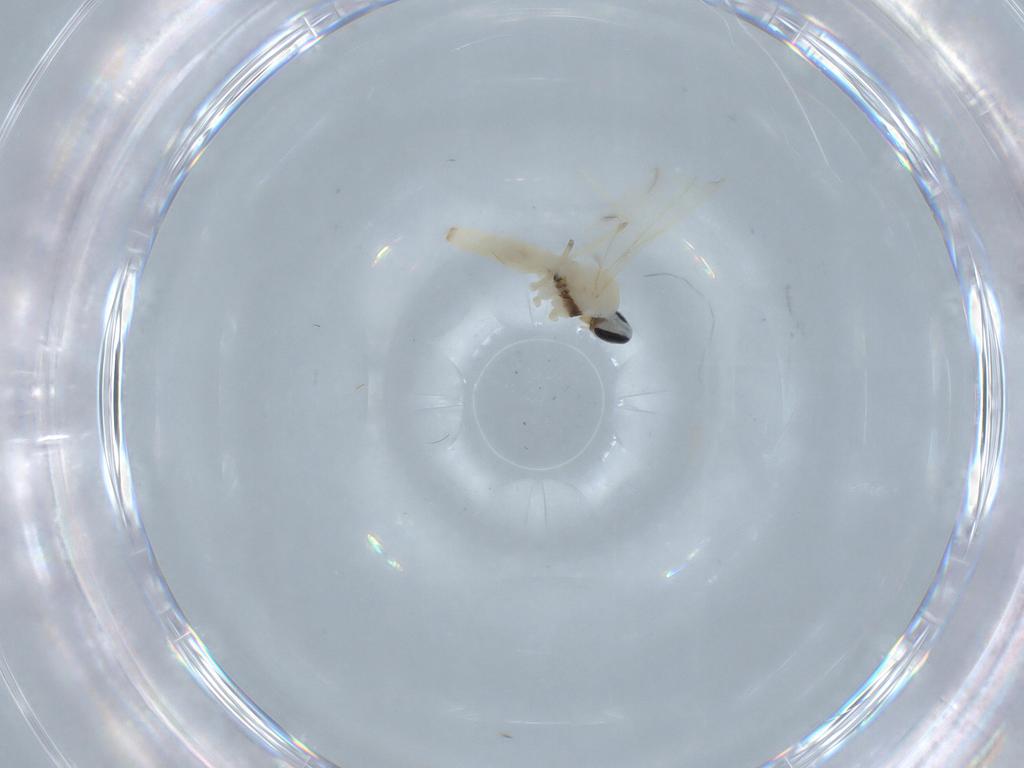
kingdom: Animalia
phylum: Arthropoda
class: Insecta
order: Diptera
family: Cecidomyiidae
